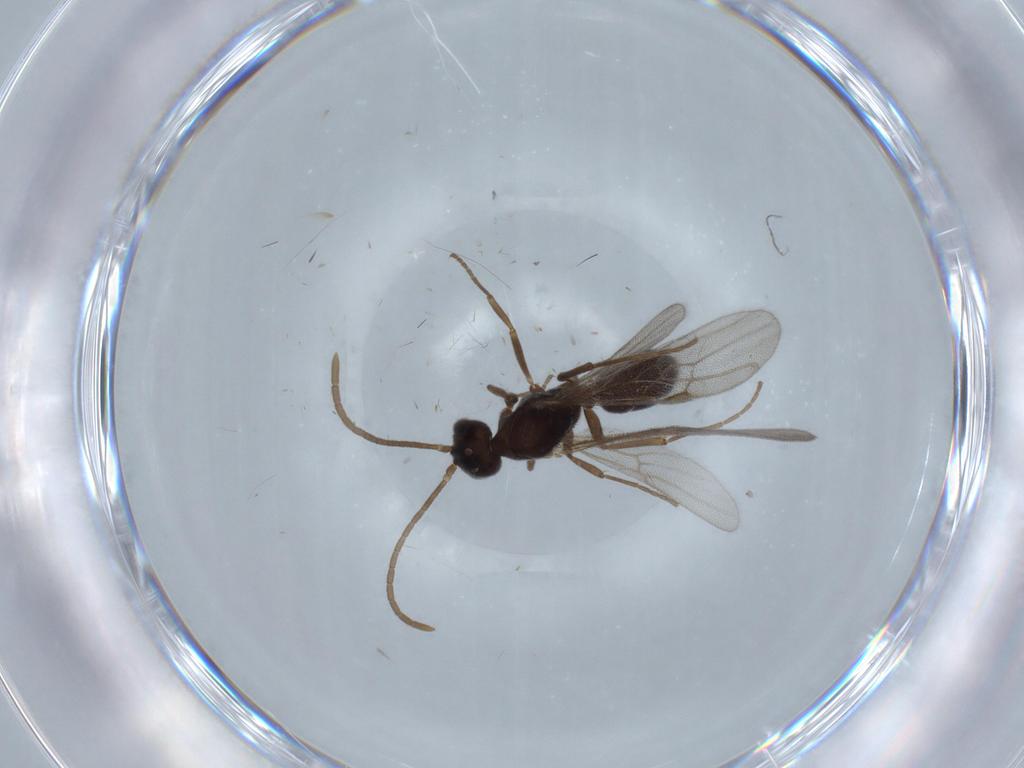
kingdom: Animalia
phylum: Arthropoda
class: Insecta
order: Hymenoptera
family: Formicidae
